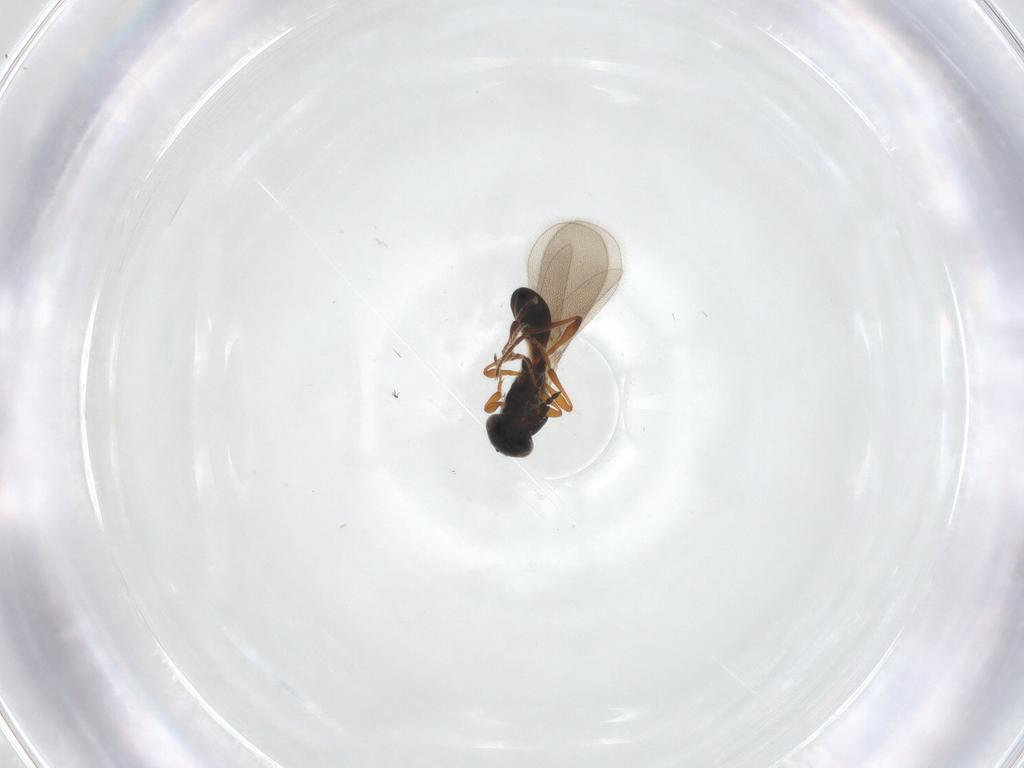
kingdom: Animalia
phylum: Arthropoda
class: Insecta
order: Hymenoptera
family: Platygastridae
